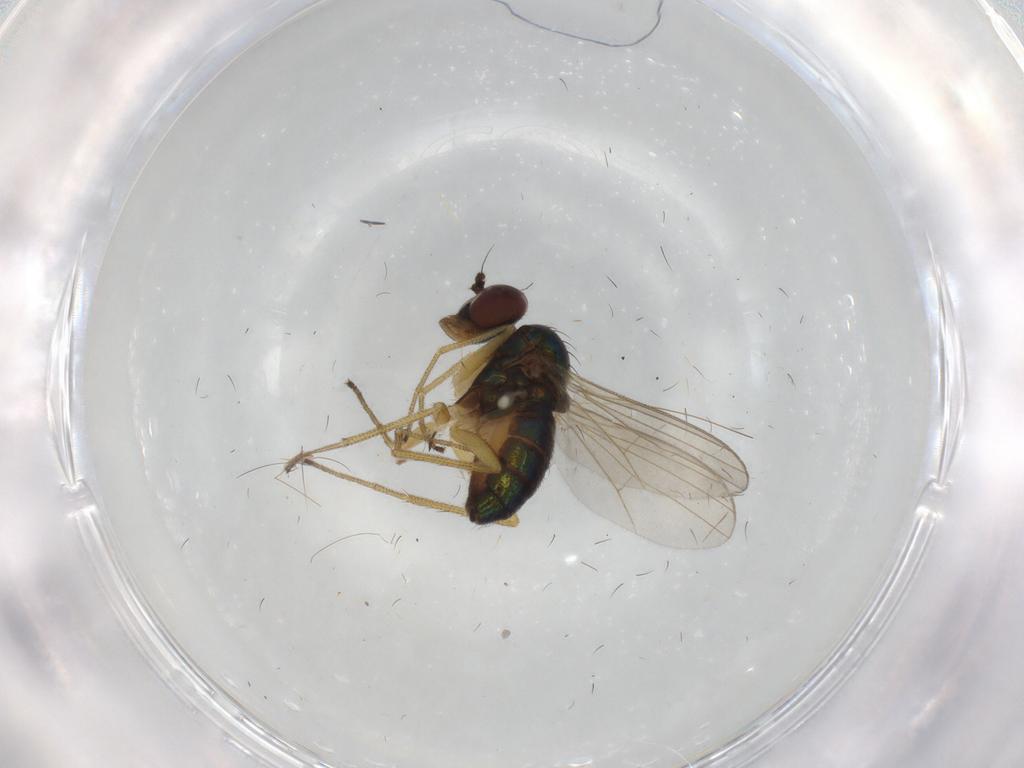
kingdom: Animalia
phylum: Arthropoda
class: Insecta
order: Diptera
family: Dolichopodidae
